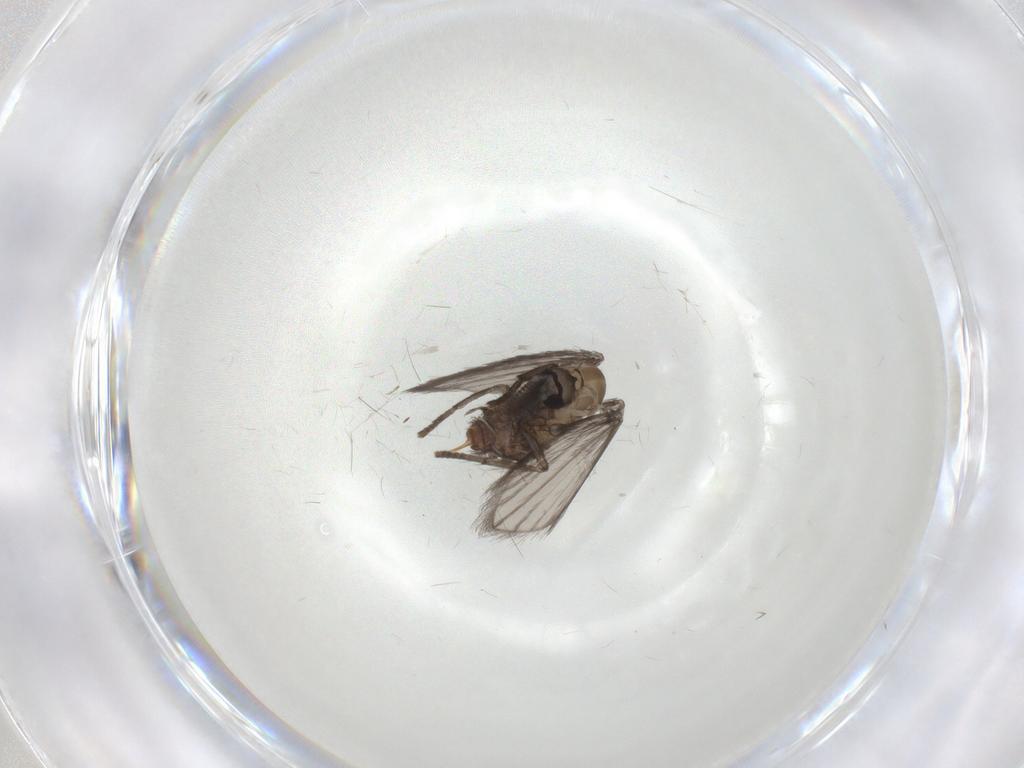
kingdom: Animalia
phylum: Arthropoda
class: Insecta
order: Diptera
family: Psychodidae
